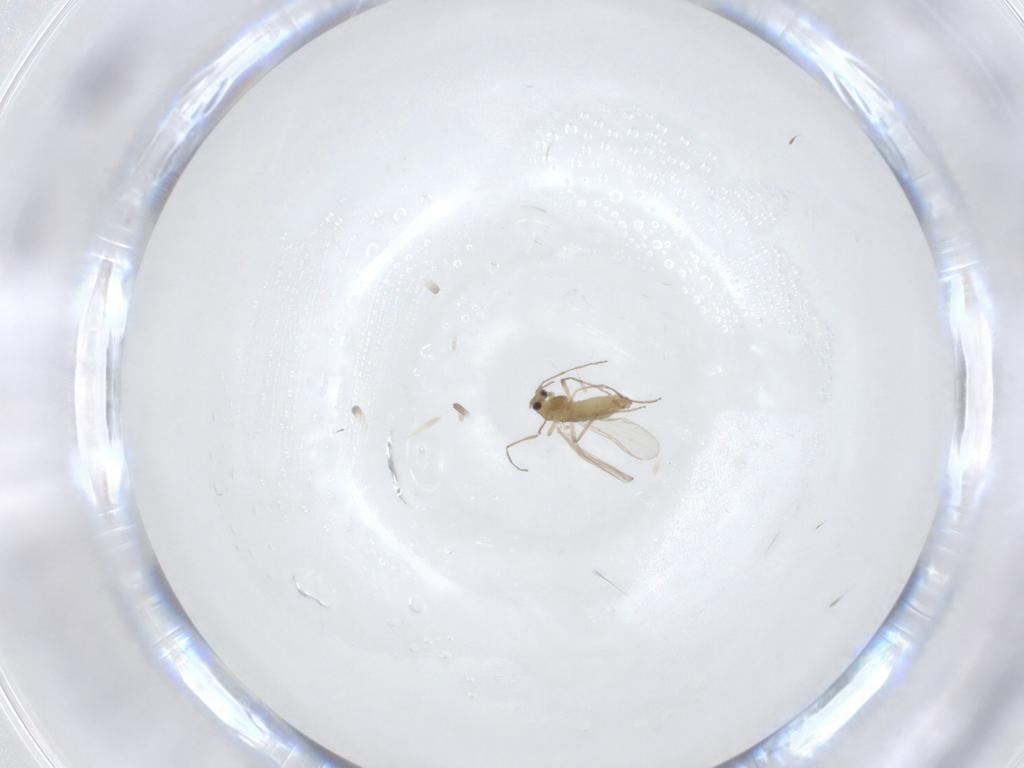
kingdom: Animalia
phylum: Arthropoda
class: Insecta
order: Diptera
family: Chironomidae
